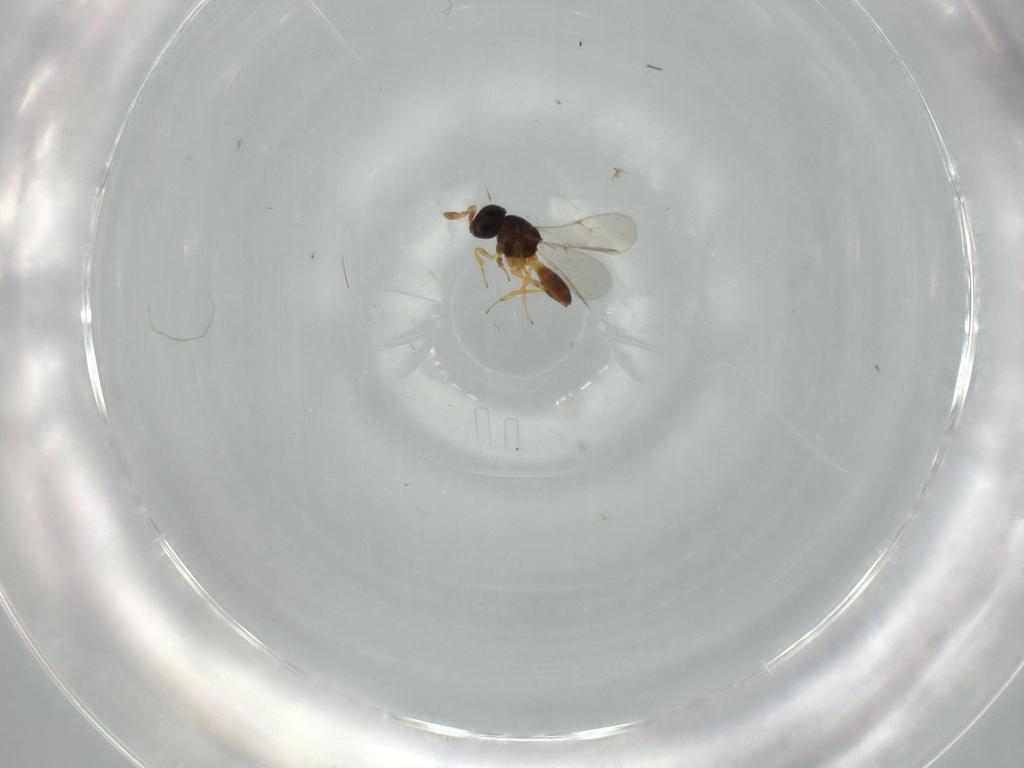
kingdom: Animalia
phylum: Arthropoda
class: Insecta
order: Hymenoptera
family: Scelionidae
